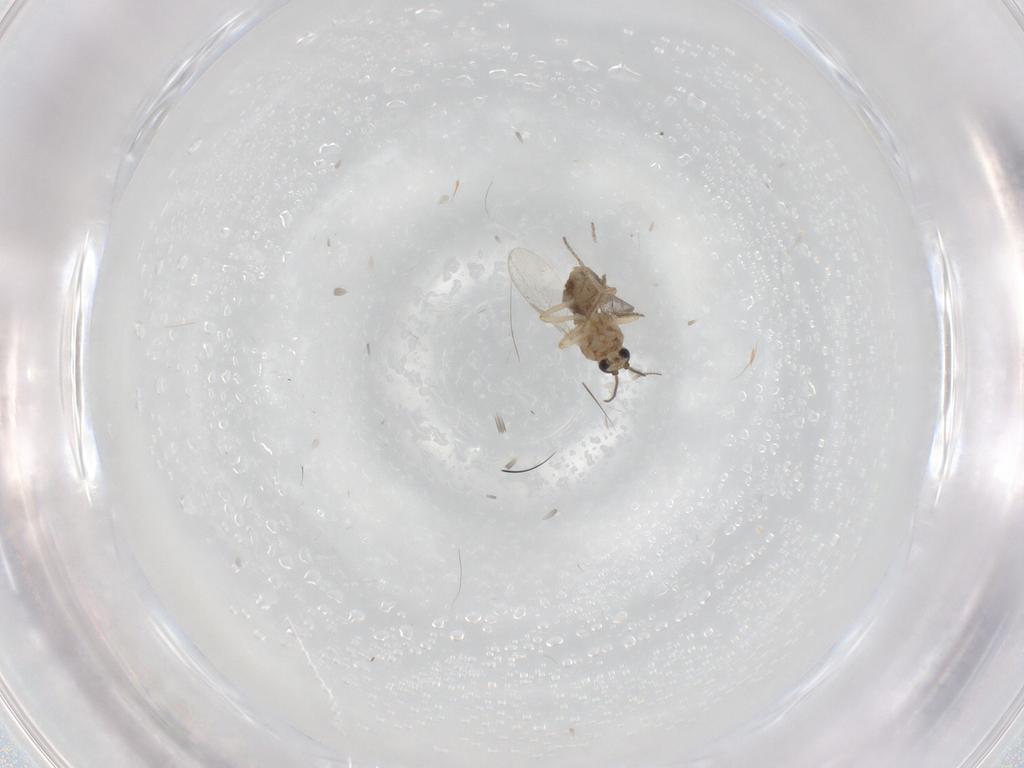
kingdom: Animalia
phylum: Arthropoda
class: Insecta
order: Diptera
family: Ceratopogonidae
